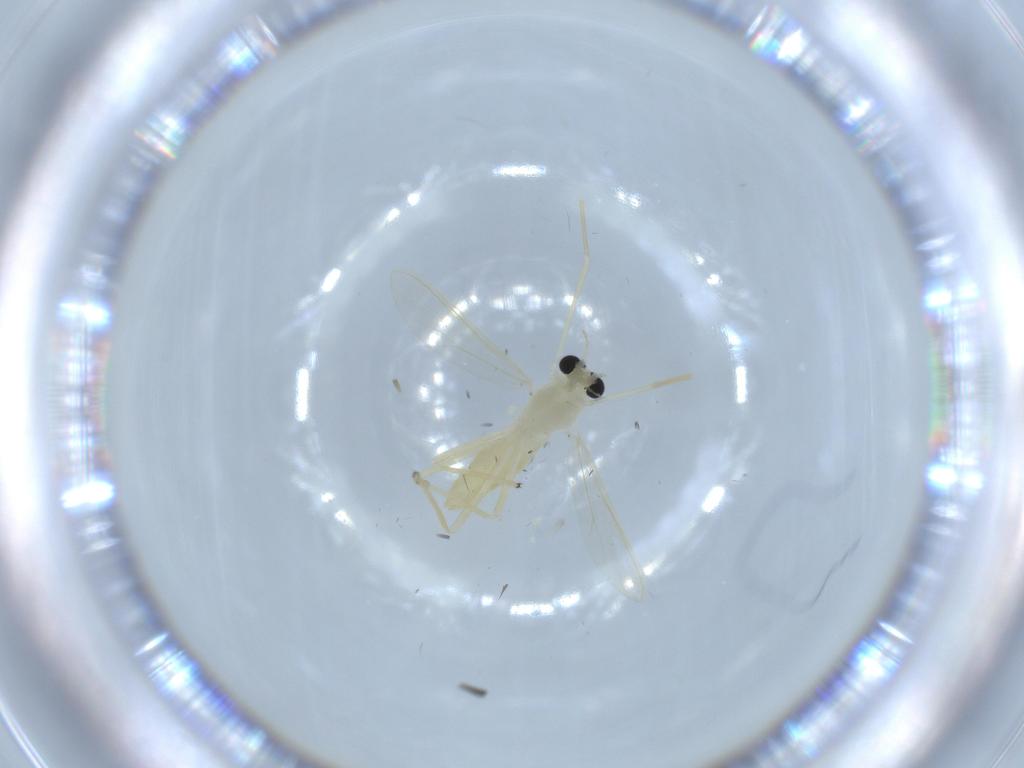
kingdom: Animalia
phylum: Arthropoda
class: Insecta
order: Diptera
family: Chironomidae
